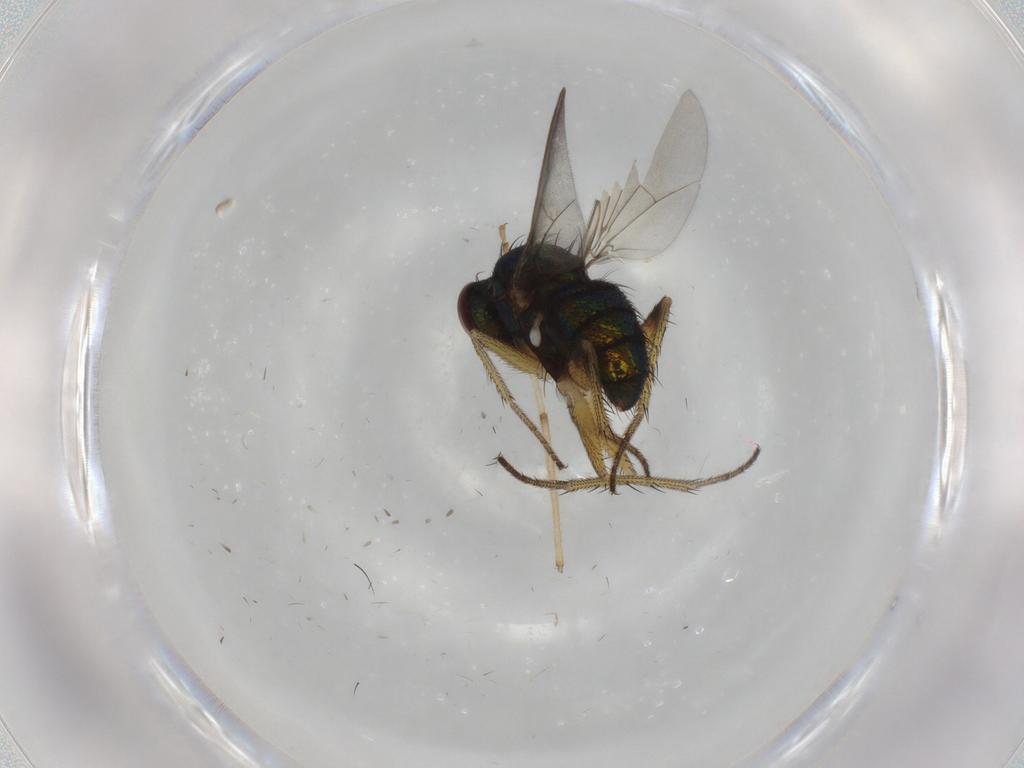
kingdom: Animalia
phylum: Arthropoda
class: Insecta
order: Diptera
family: Dolichopodidae
